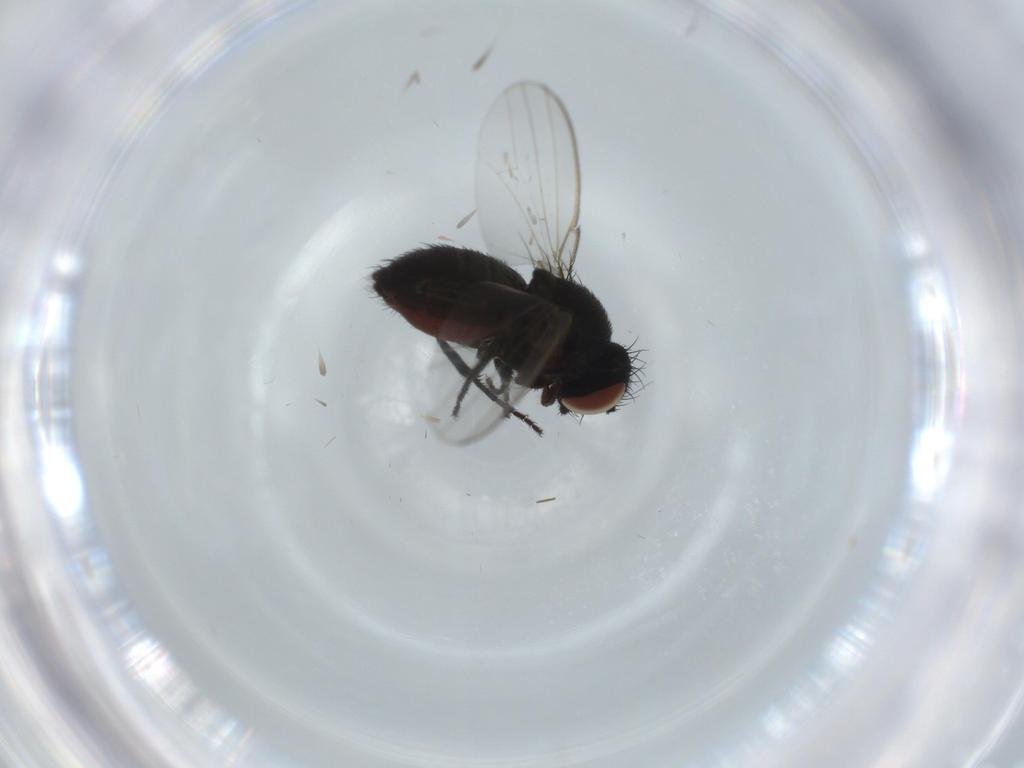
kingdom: Animalia
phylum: Arthropoda
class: Insecta
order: Diptera
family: Milichiidae
